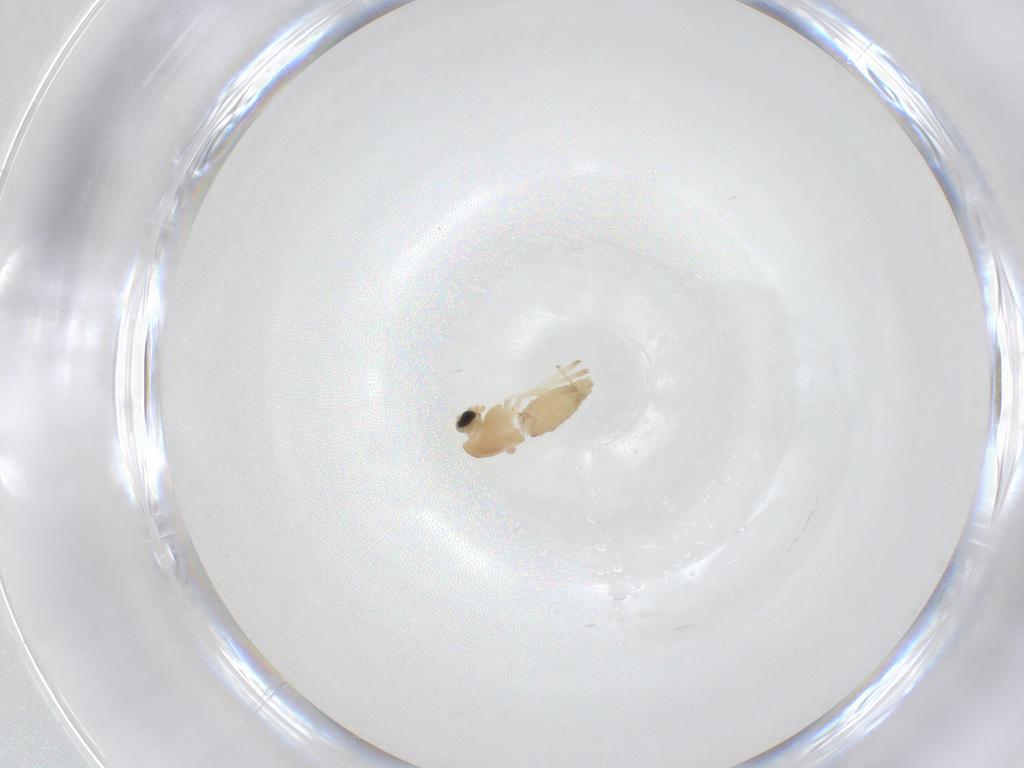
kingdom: Animalia
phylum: Arthropoda
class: Insecta
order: Diptera
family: Chironomidae
